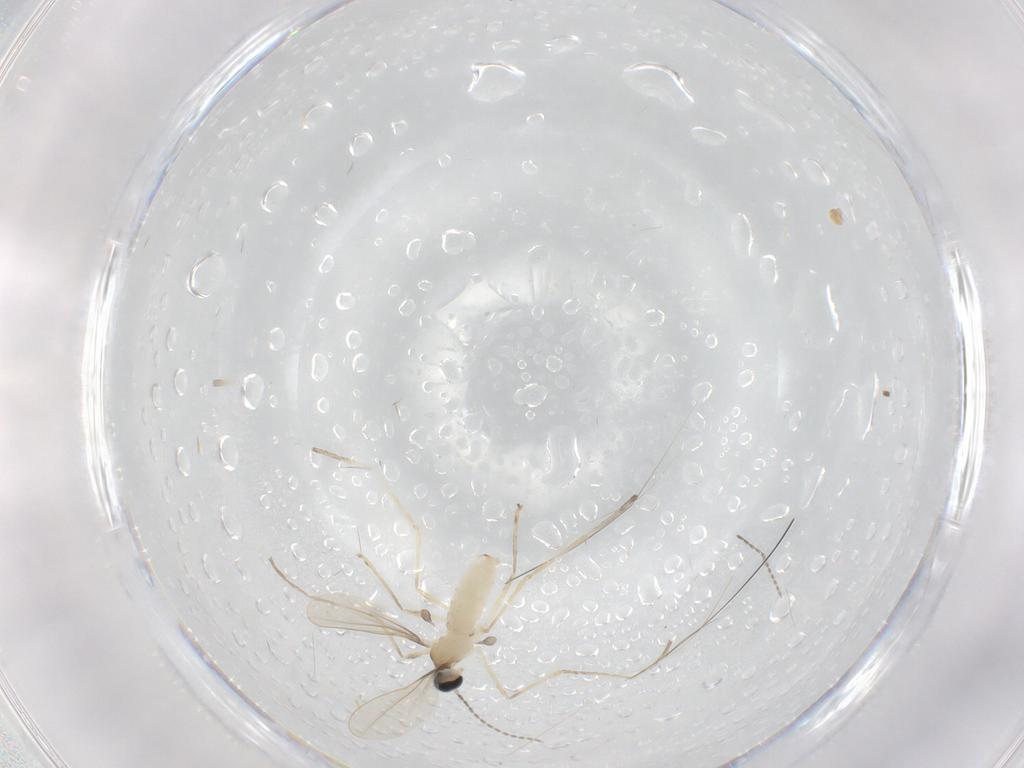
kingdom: Animalia
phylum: Arthropoda
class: Insecta
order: Diptera
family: Cecidomyiidae
